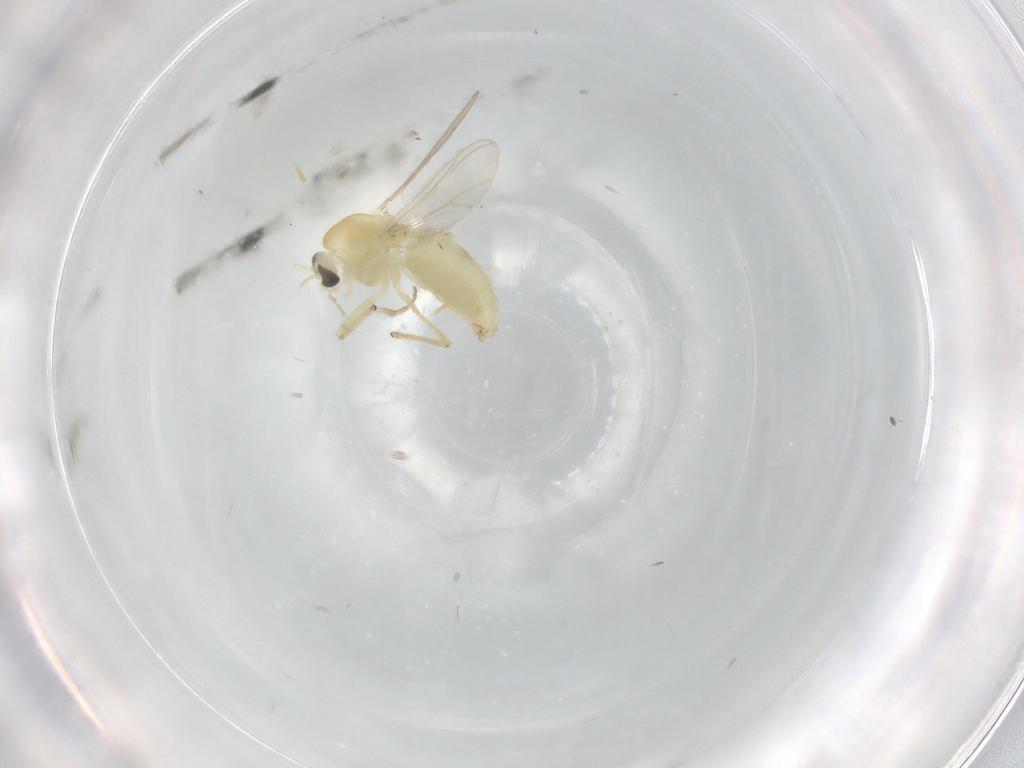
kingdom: Animalia
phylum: Arthropoda
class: Insecta
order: Diptera
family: Chironomidae
